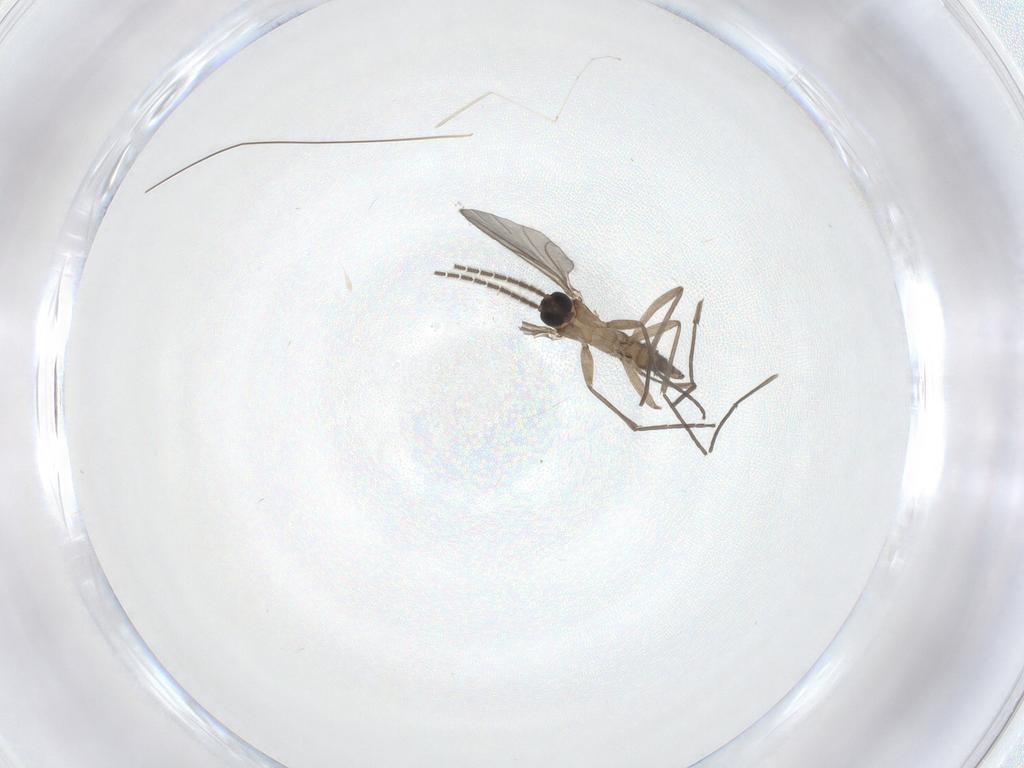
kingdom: Animalia
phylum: Arthropoda
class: Insecta
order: Diptera
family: Sciaridae
